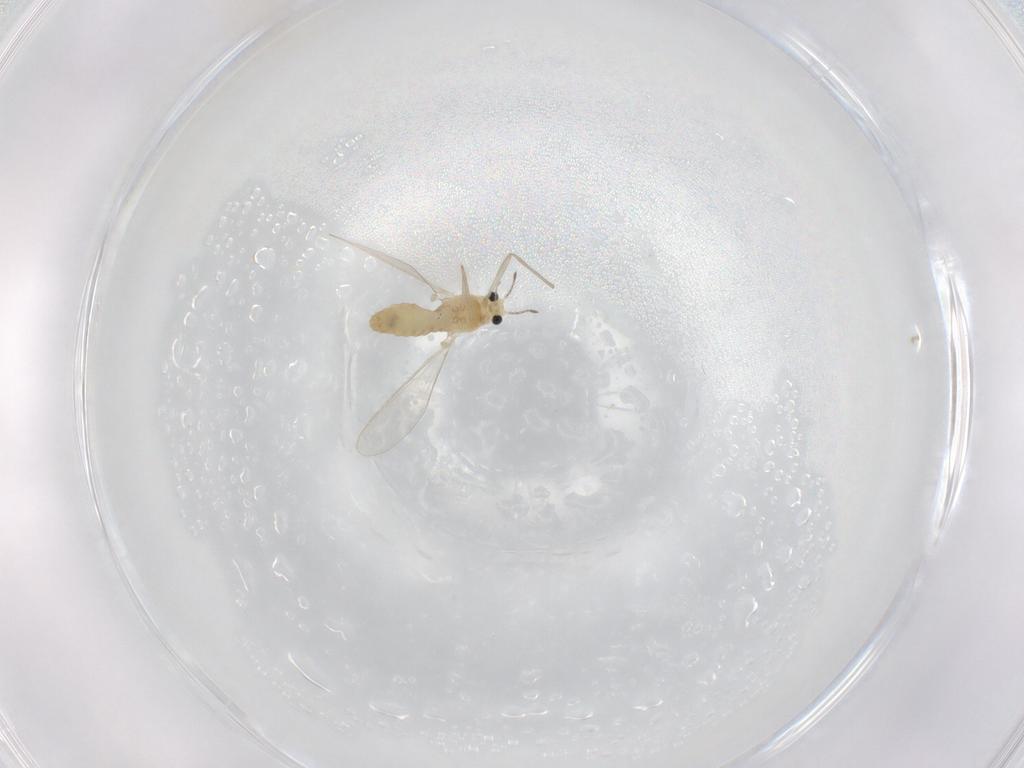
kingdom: Animalia
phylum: Arthropoda
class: Insecta
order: Diptera
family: Chironomidae
